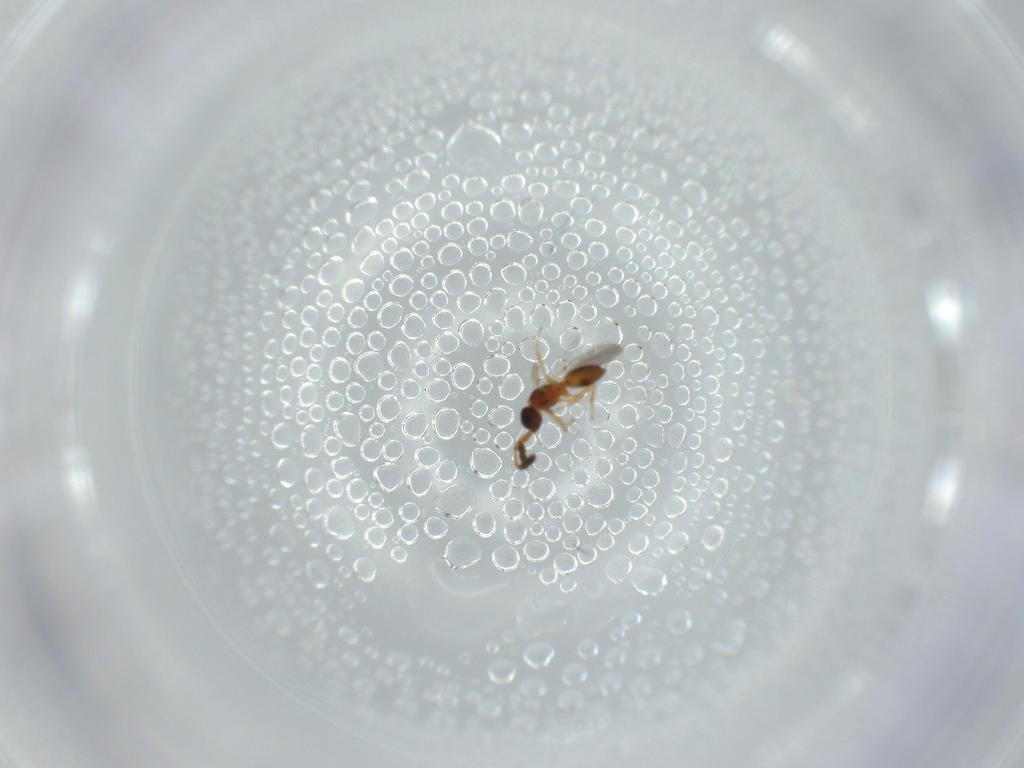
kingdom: Animalia
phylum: Arthropoda
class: Insecta
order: Hymenoptera
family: Diapriidae
